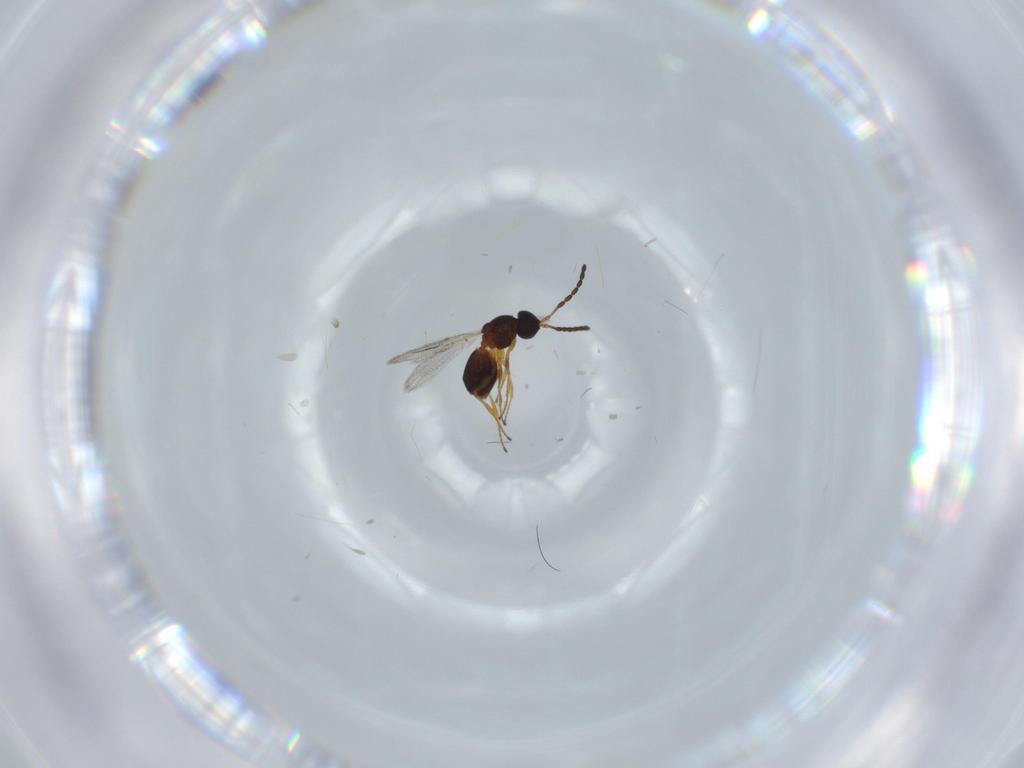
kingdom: Animalia
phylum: Arthropoda
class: Insecta
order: Hymenoptera
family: Figitidae
